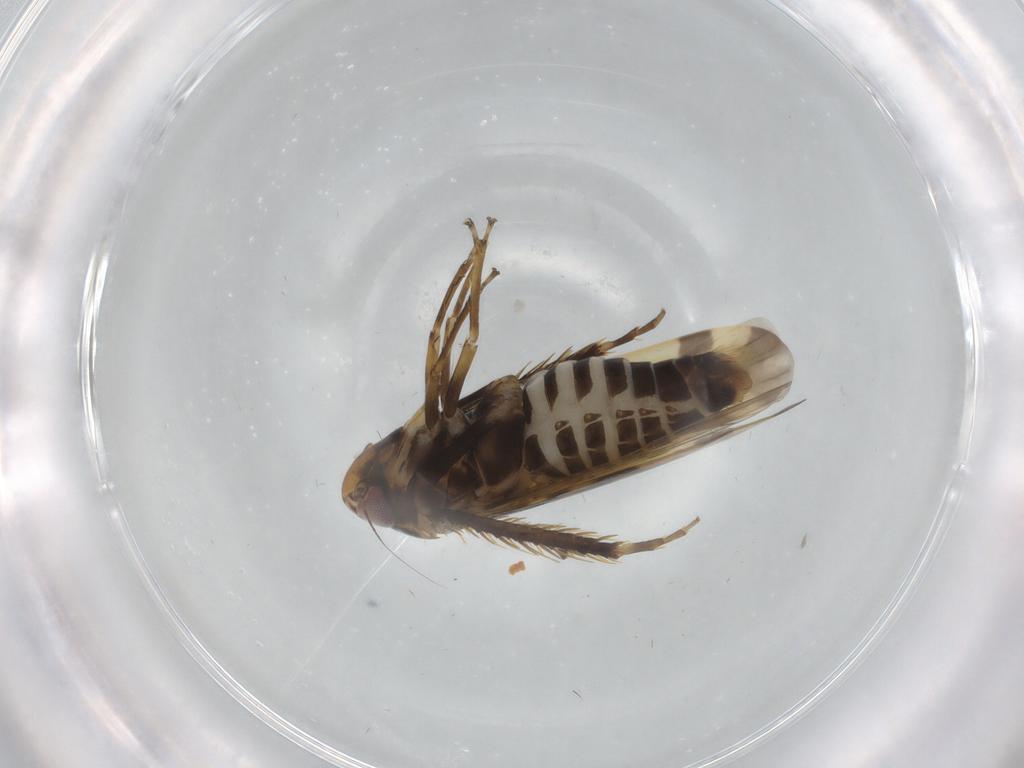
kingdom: Animalia
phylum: Arthropoda
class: Insecta
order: Hemiptera
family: Cicadellidae
